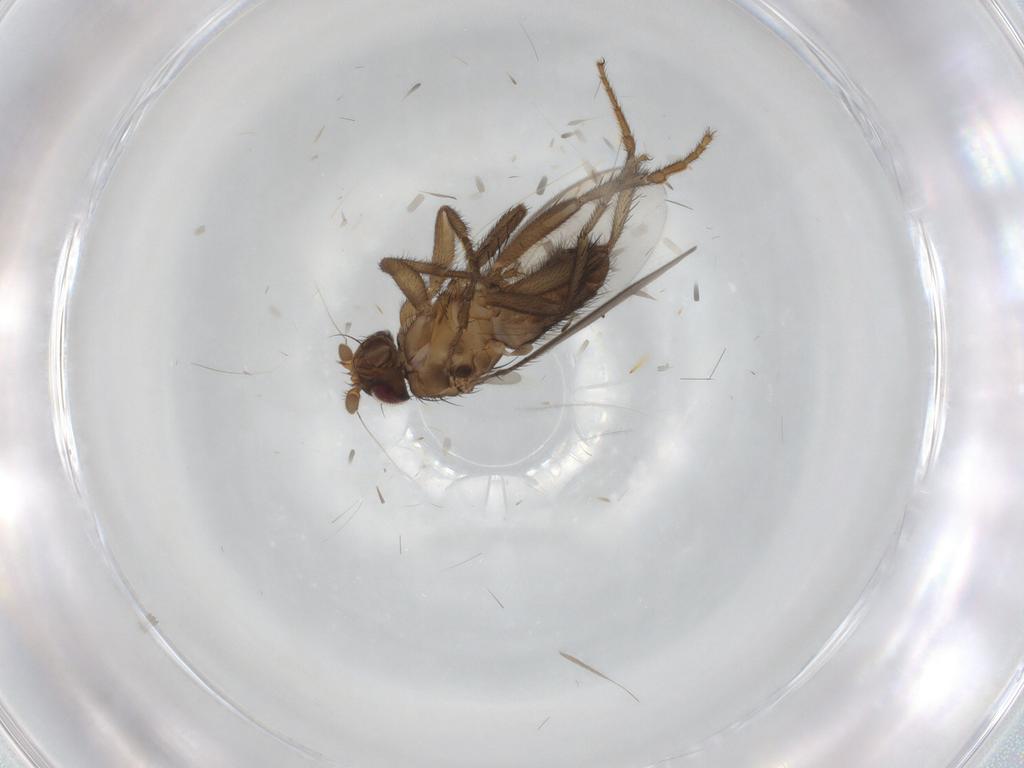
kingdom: Animalia
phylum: Arthropoda
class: Insecta
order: Diptera
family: Sphaeroceridae
